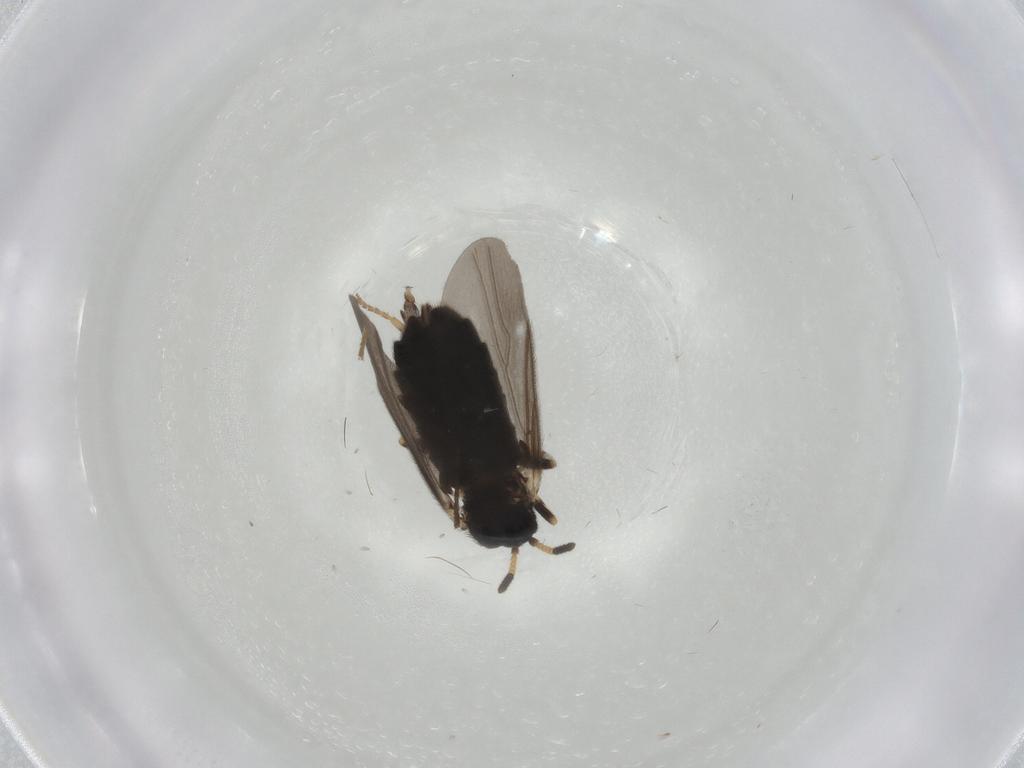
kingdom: Animalia
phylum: Arthropoda
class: Insecta
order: Diptera
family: Scatopsidae
